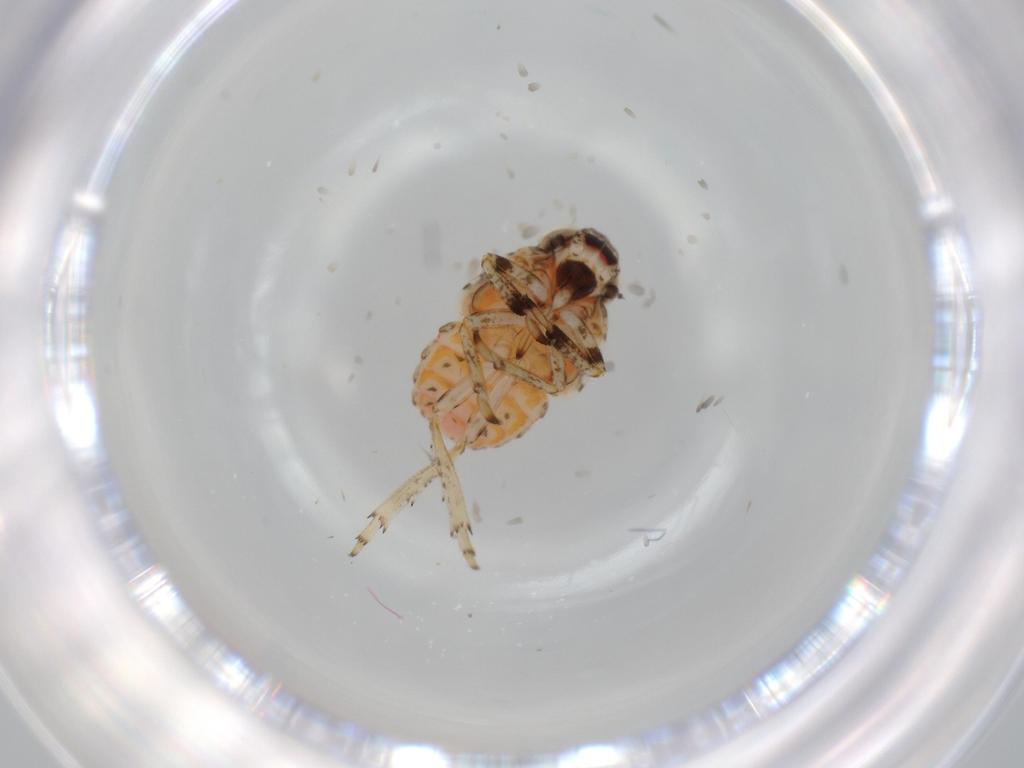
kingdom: Animalia
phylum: Arthropoda
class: Insecta
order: Hemiptera
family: Issidae
